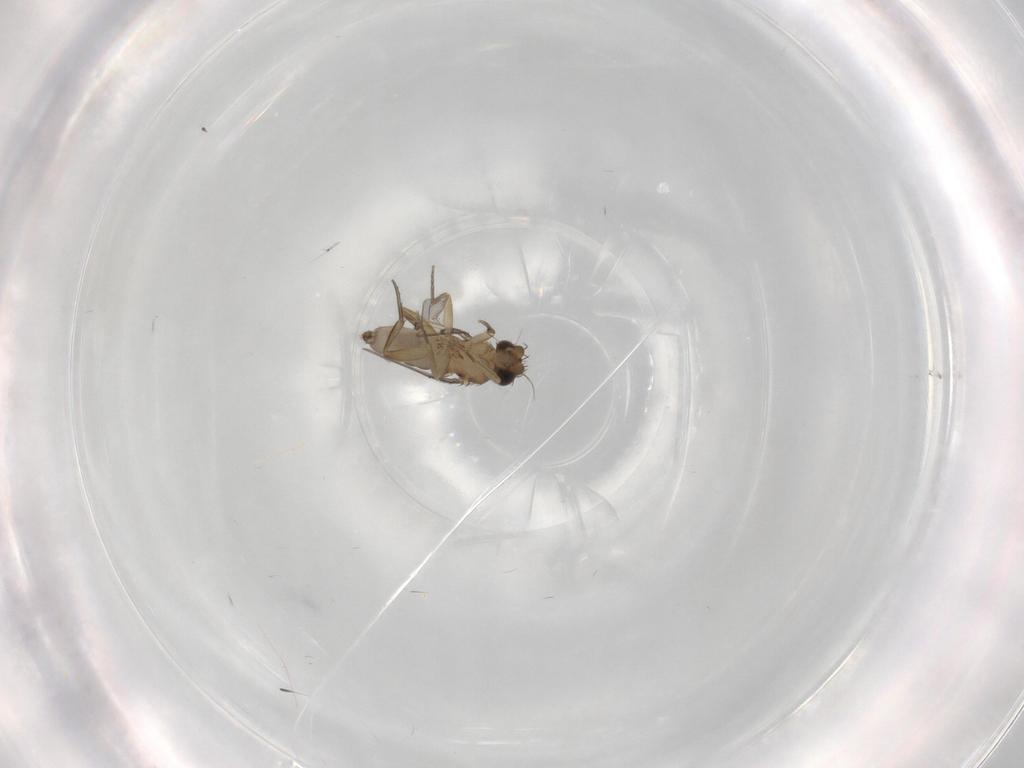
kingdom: Animalia
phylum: Arthropoda
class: Insecta
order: Diptera
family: Phoridae
